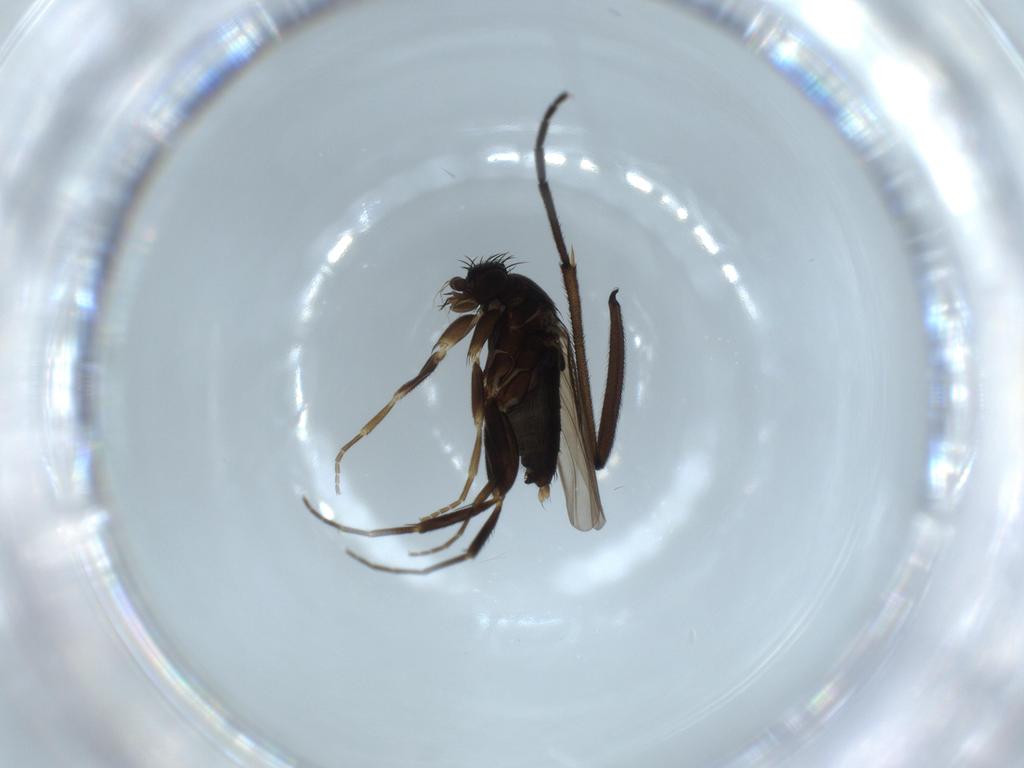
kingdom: Animalia
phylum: Arthropoda
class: Insecta
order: Diptera
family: Phoridae
